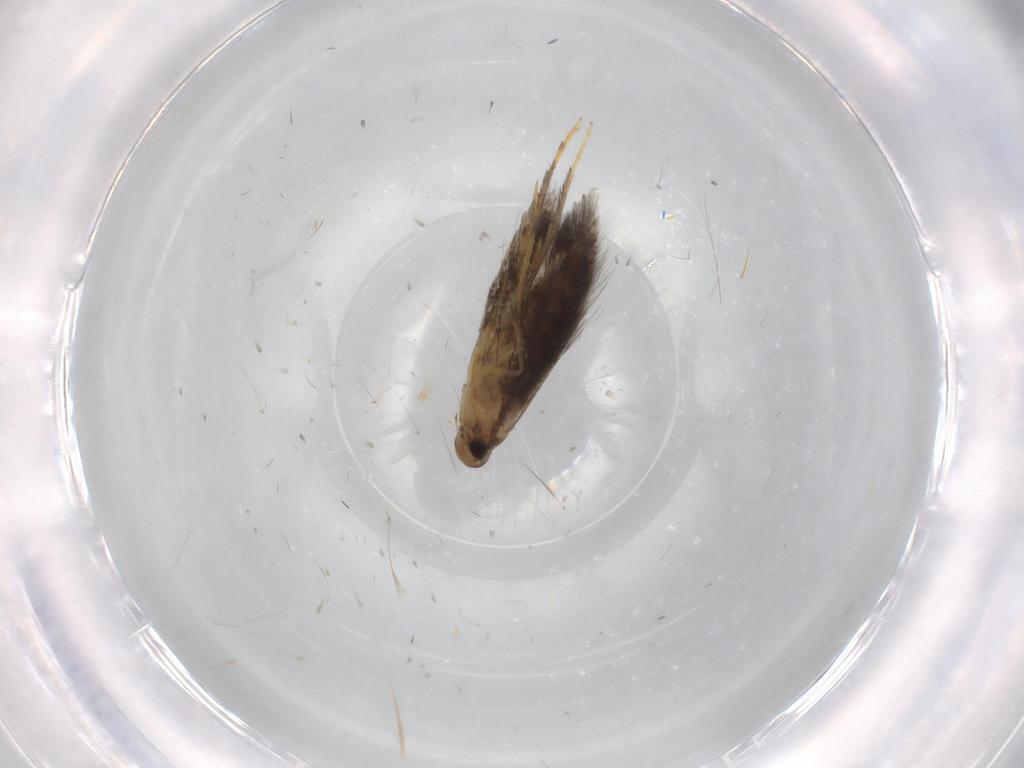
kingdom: Animalia
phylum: Arthropoda
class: Insecta
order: Lepidoptera
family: Heliozelidae
